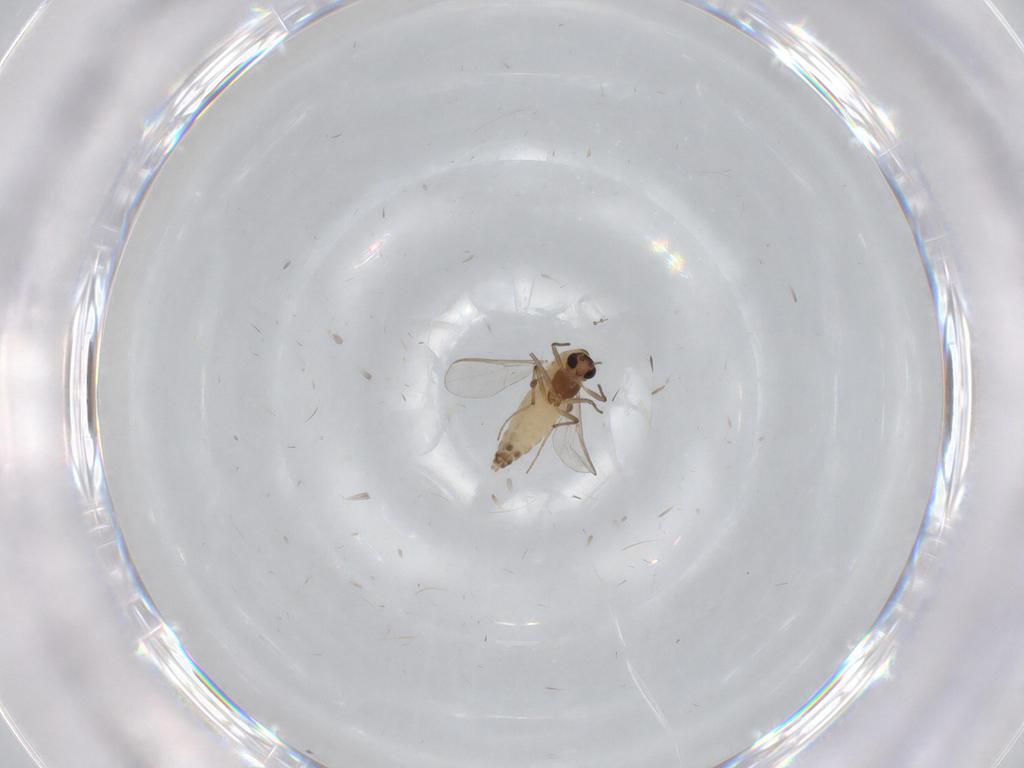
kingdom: Animalia
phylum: Arthropoda
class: Insecta
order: Diptera
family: Chironomidae
